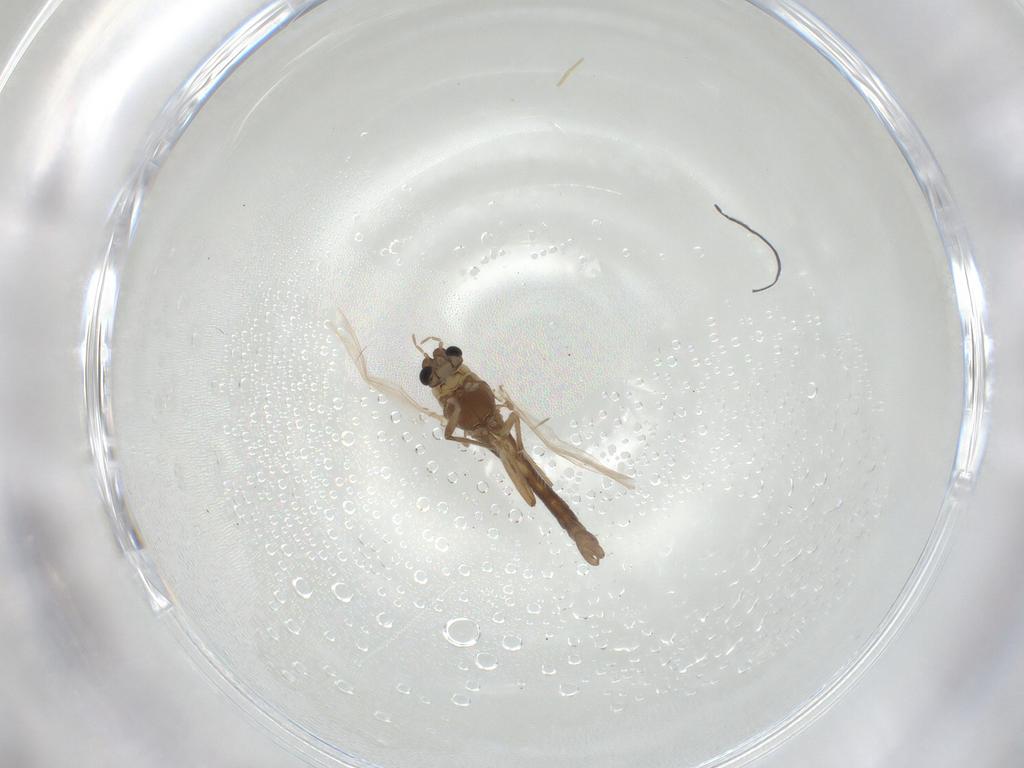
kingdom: Animalia
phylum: Arthropoda
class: Insecta
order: Diptera
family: Chironomidae
